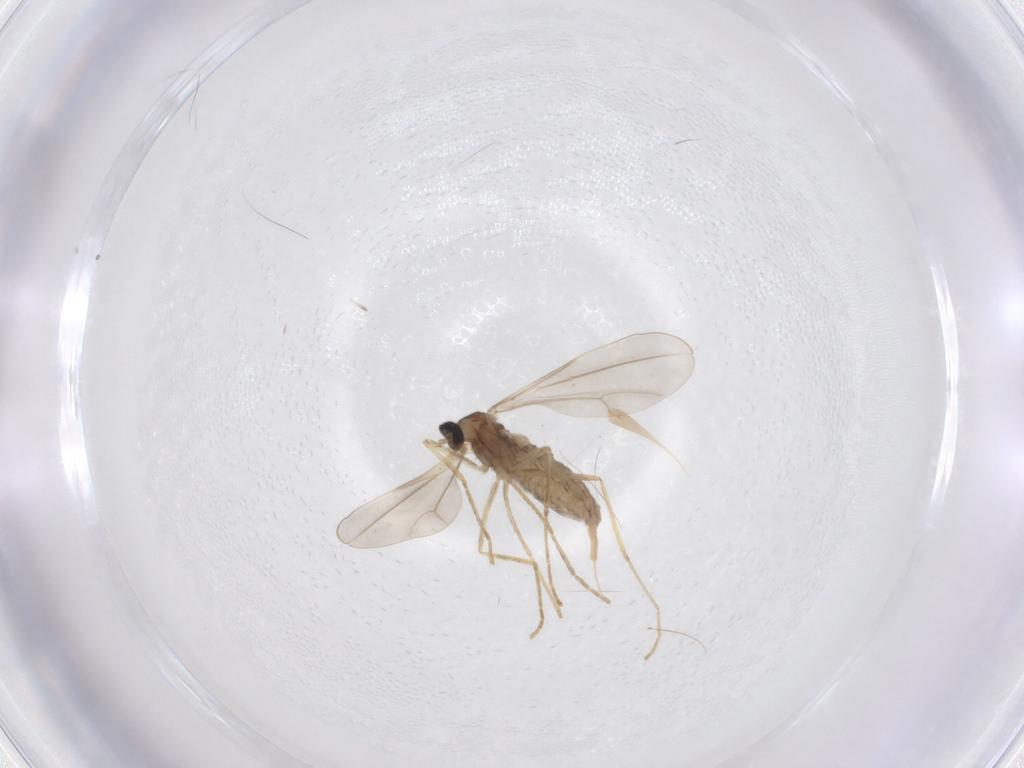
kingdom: Animalia
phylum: Arthropoda
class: Insecta
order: Diptera
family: Cecidomyiidae
